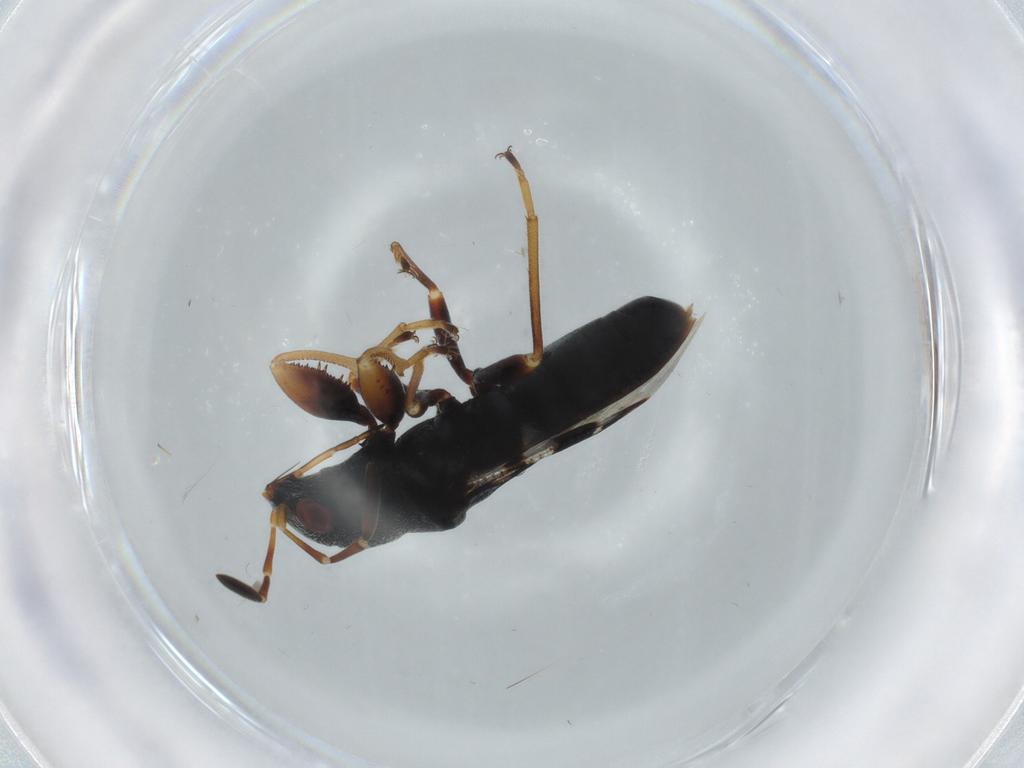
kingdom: Animalia
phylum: Arthropoda
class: Insecta
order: Hemiptera
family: Rhyparochromidae
